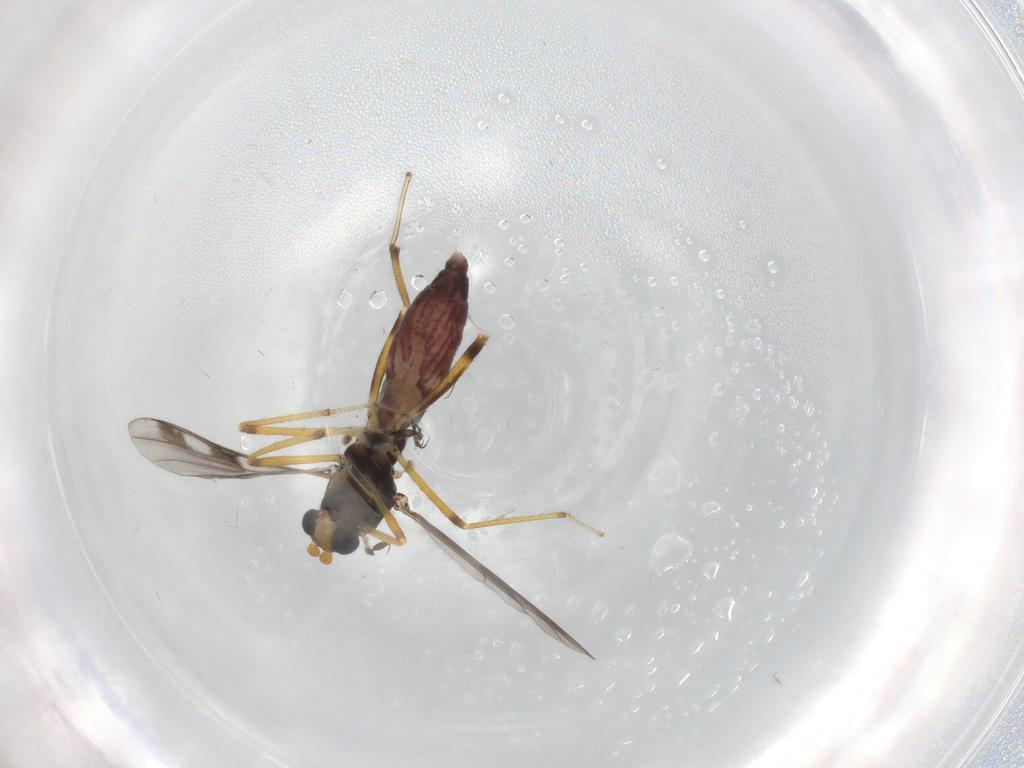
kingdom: Animalia
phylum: Arthropoda
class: Insecta
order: Diptera
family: Ceratopogonidae
